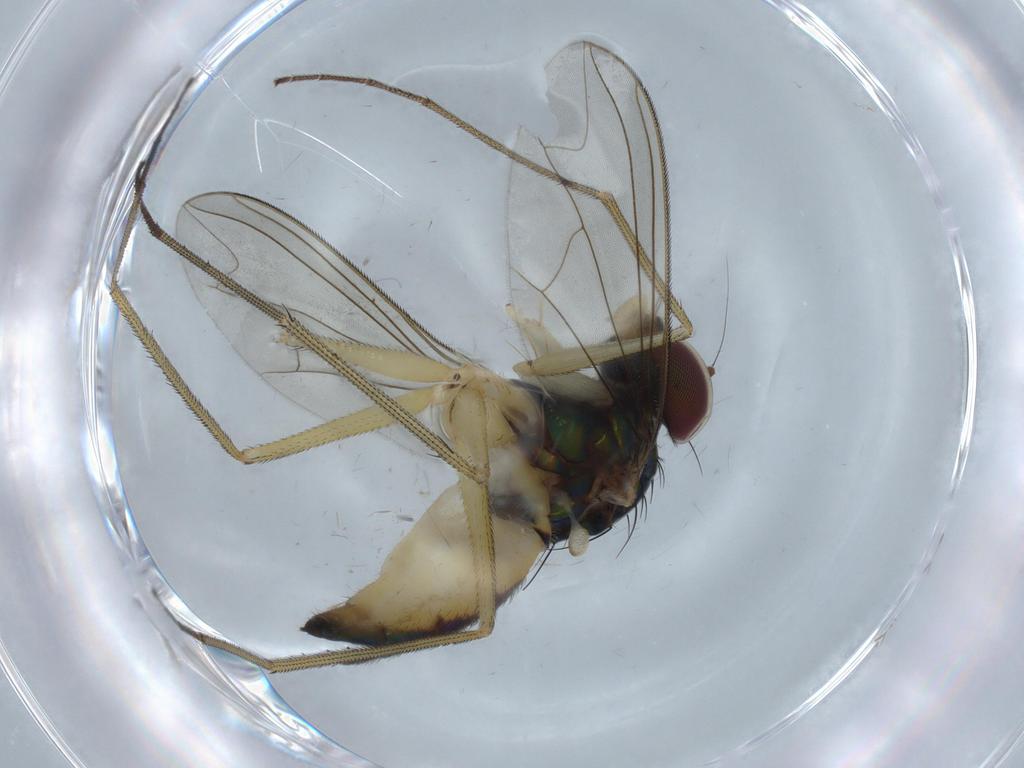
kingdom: Animalia
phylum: Arthropoda
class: Insecta
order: Diptera
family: Dolichopodidae
